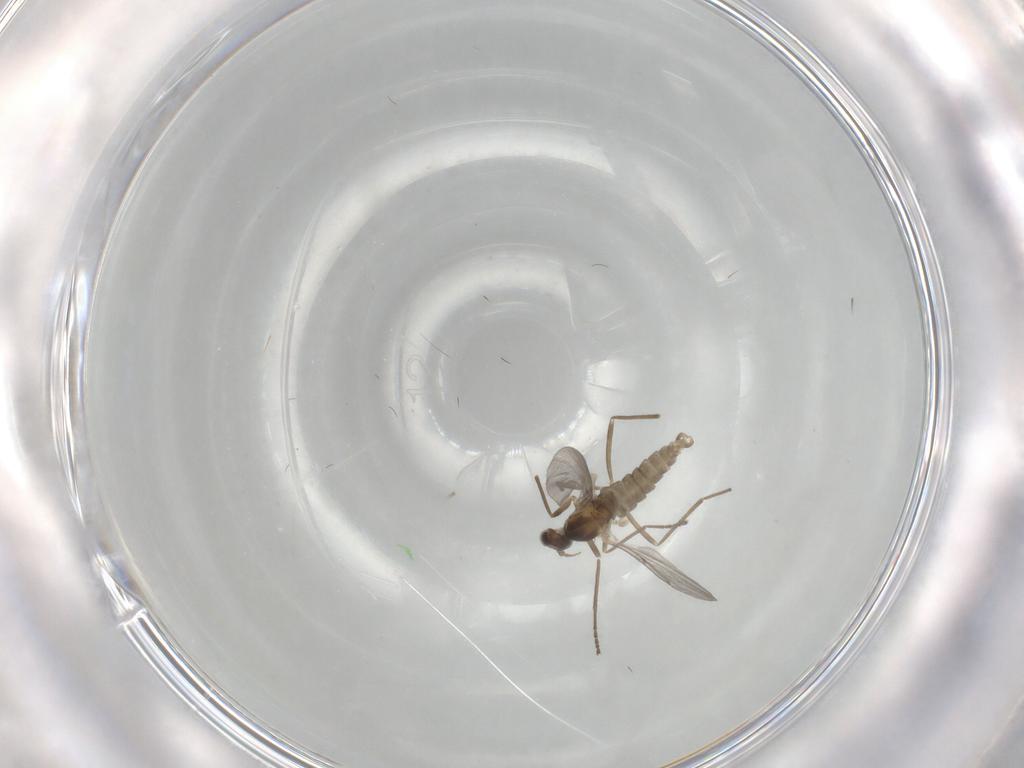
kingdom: Animalia
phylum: Arthropoda
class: Insecta
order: Diptera
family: Cecidomyiidae
